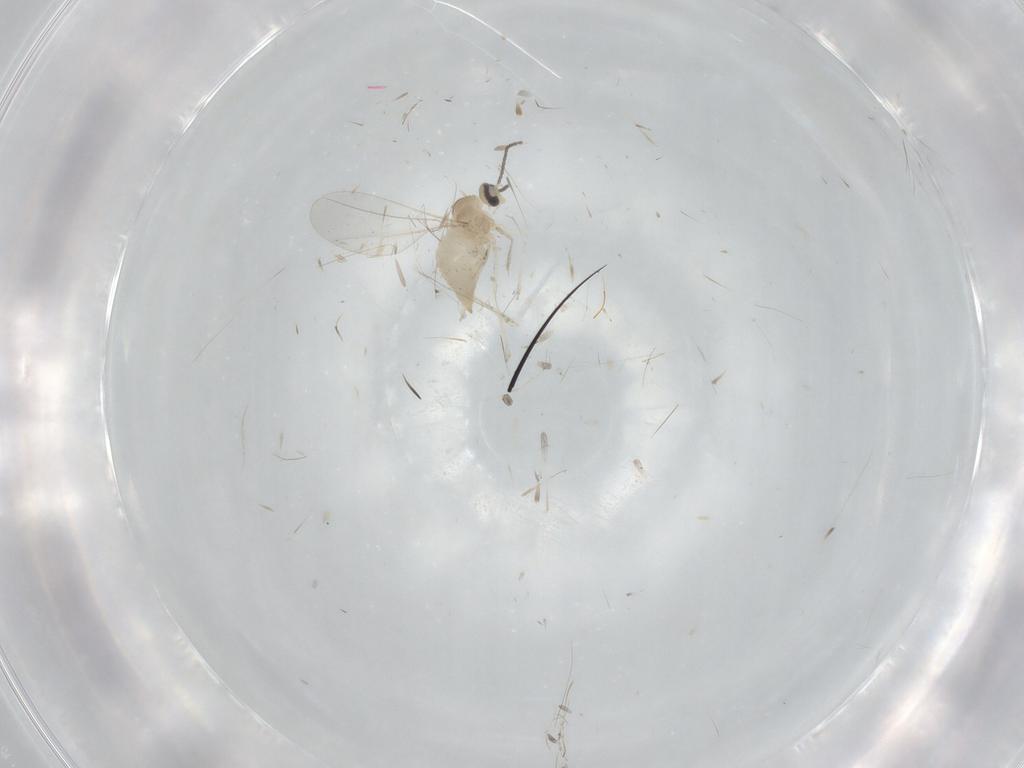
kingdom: Animalia
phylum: Arthropoda
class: Insecta
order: Diptera
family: Cecidomyiidae
